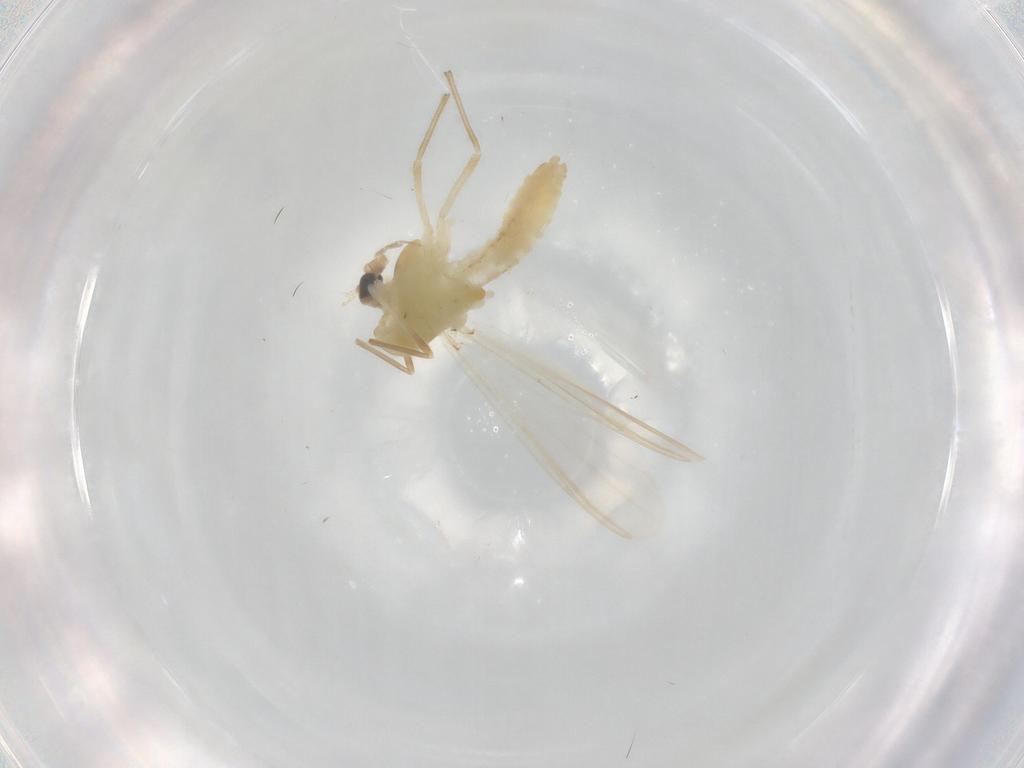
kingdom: Animalia
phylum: Arthropoda
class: Insecta
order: Diptera
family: Chironomidae
